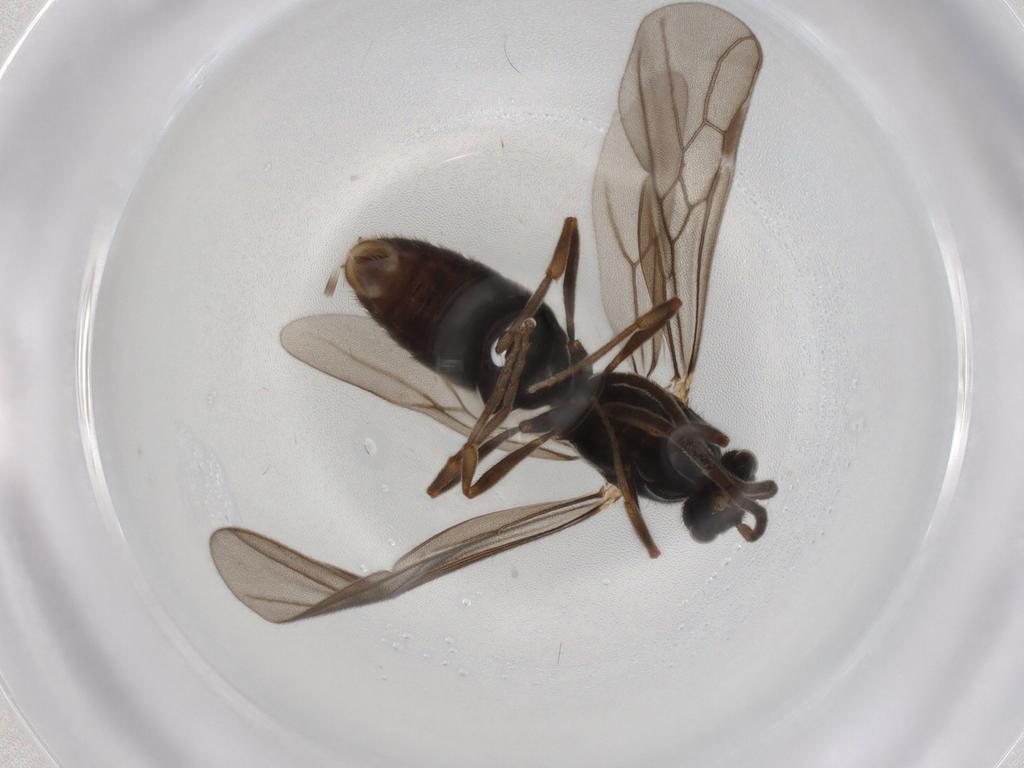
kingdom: Animalia
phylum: Arthropoda
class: Insecta
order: Hymenoptera
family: Formicidae
